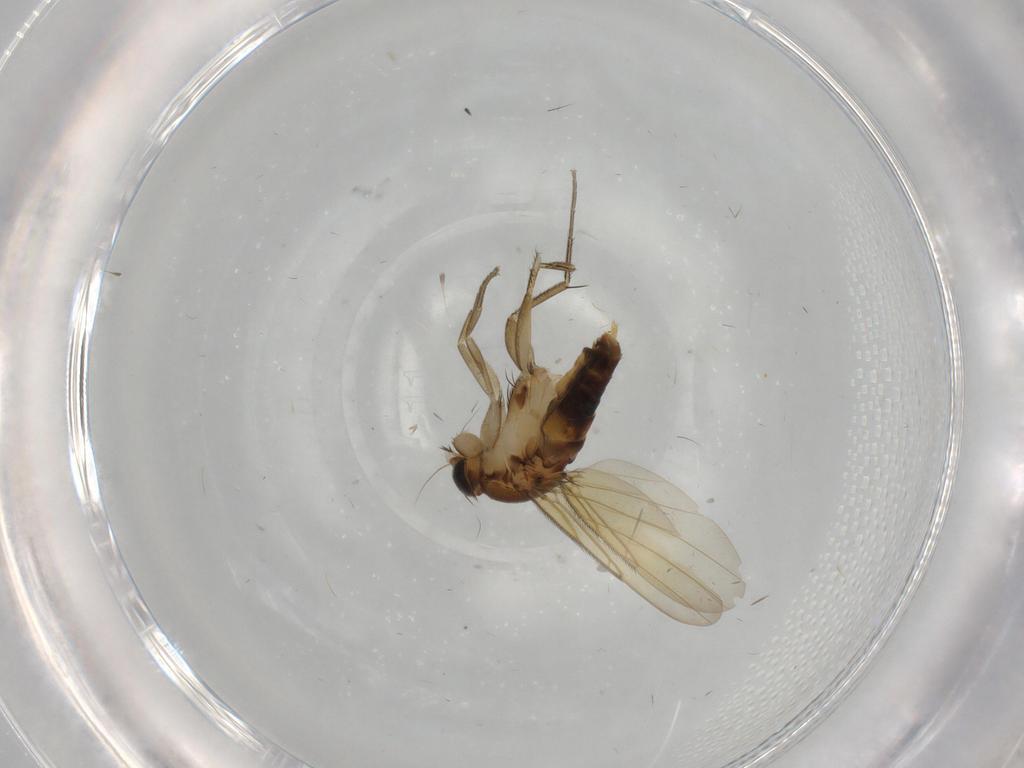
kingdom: Animalia
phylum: Arthropoda
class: Insecta
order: Diptera
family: Phoridae
